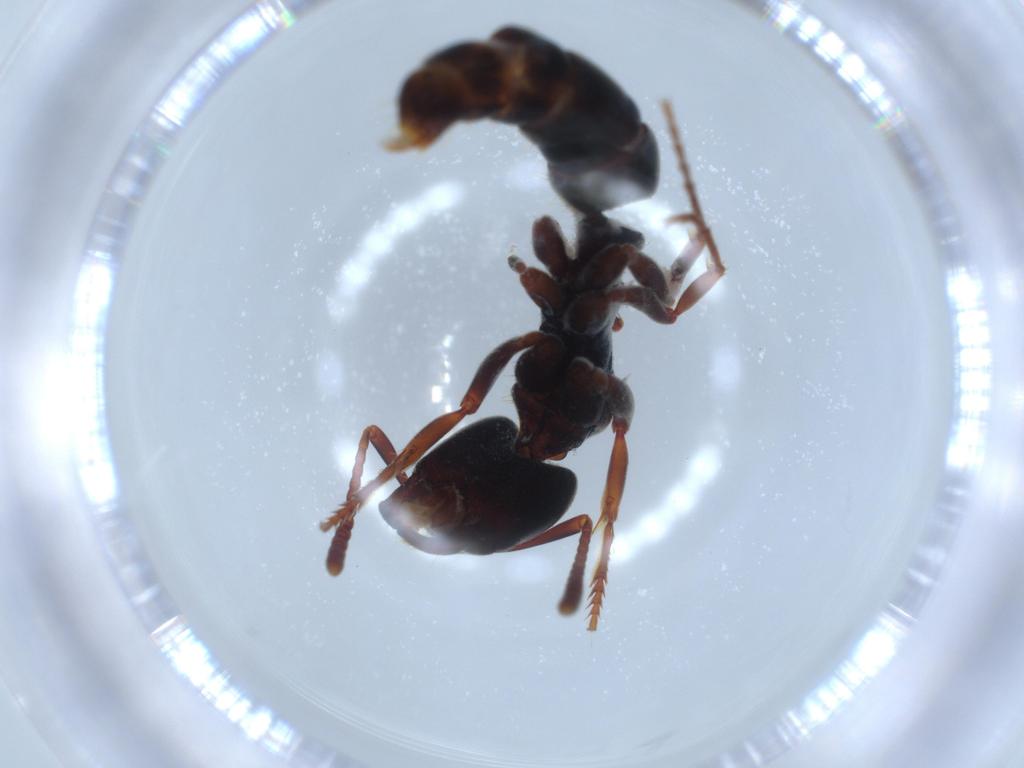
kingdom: Animalia
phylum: Arthropoda
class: Insecta
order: Hymenoptera
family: Formicidae
